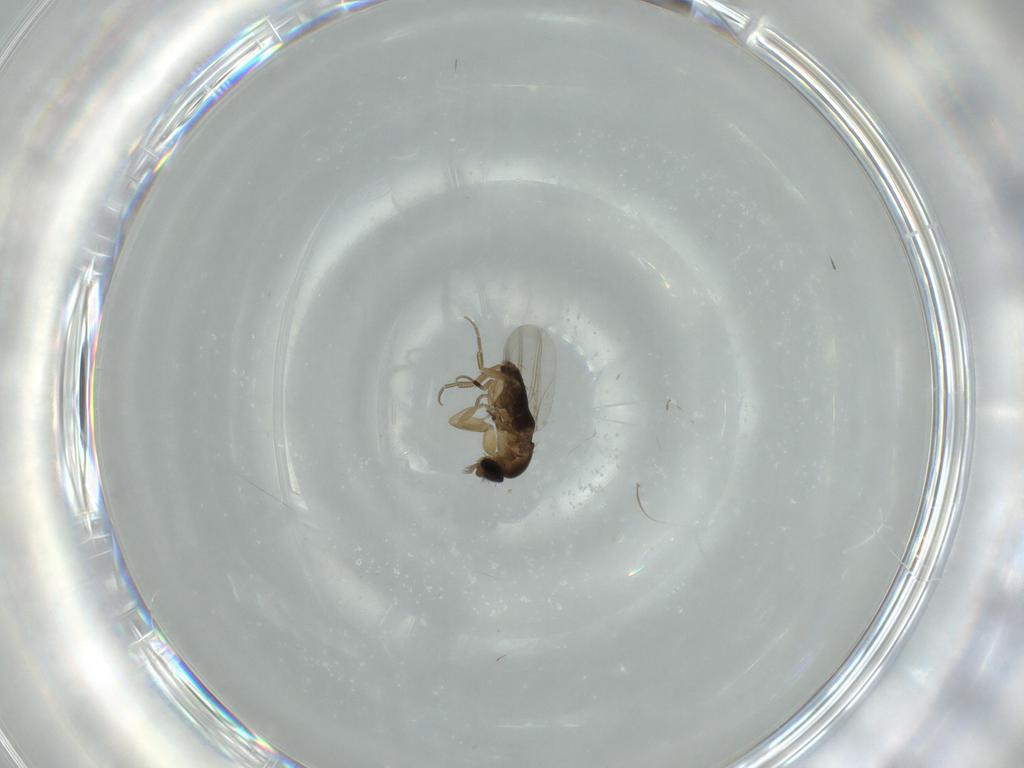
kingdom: Animalia
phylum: Arthropoda
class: Insecta
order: Diptera
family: Phoridae
